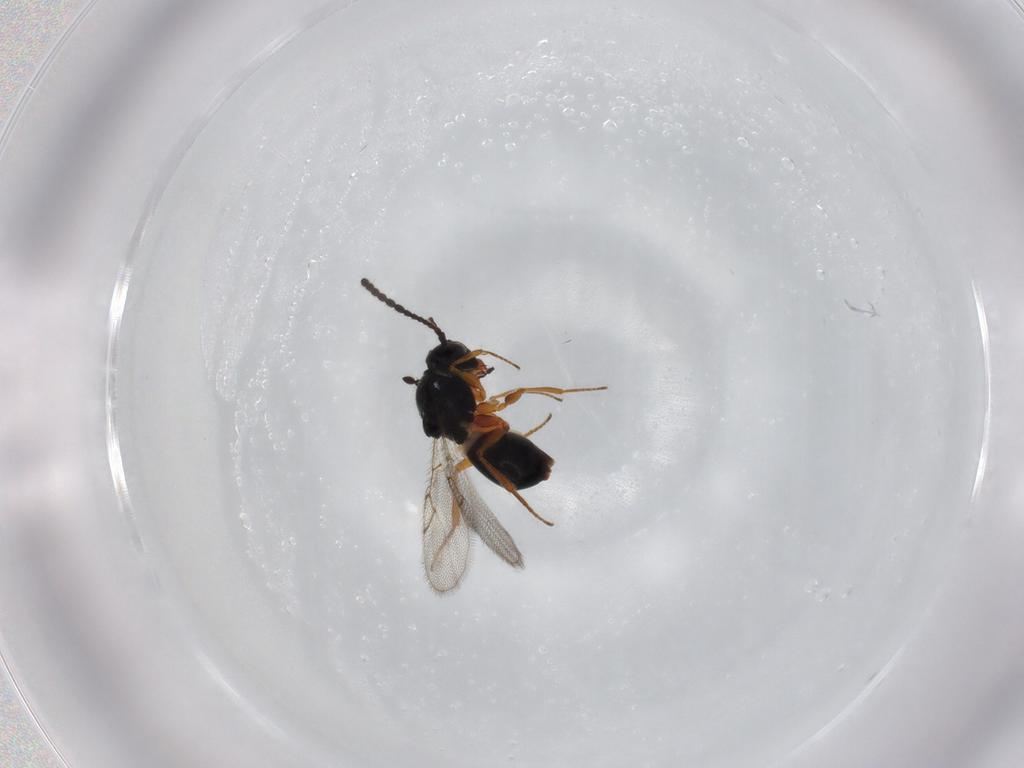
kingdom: Animalia
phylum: Arthropoda
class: Insecta
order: Hymenoptera
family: Figitidae
